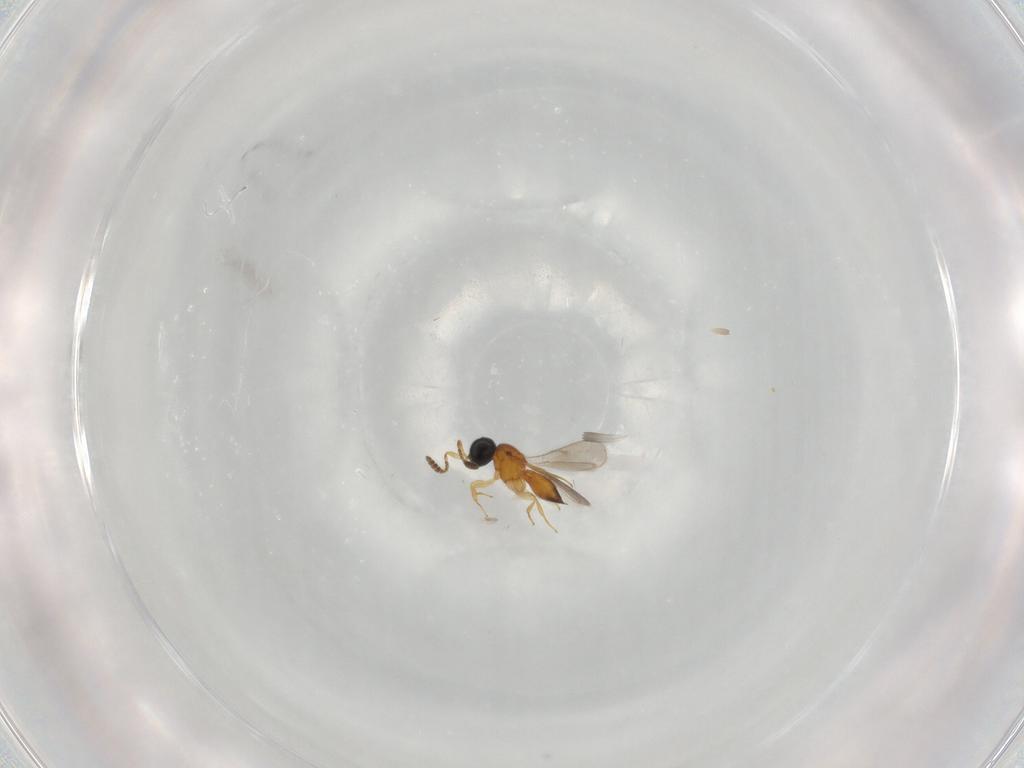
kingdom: Animalia
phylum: Arthropoda
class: Insecta
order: Hymenoptera
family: Scelionidae
